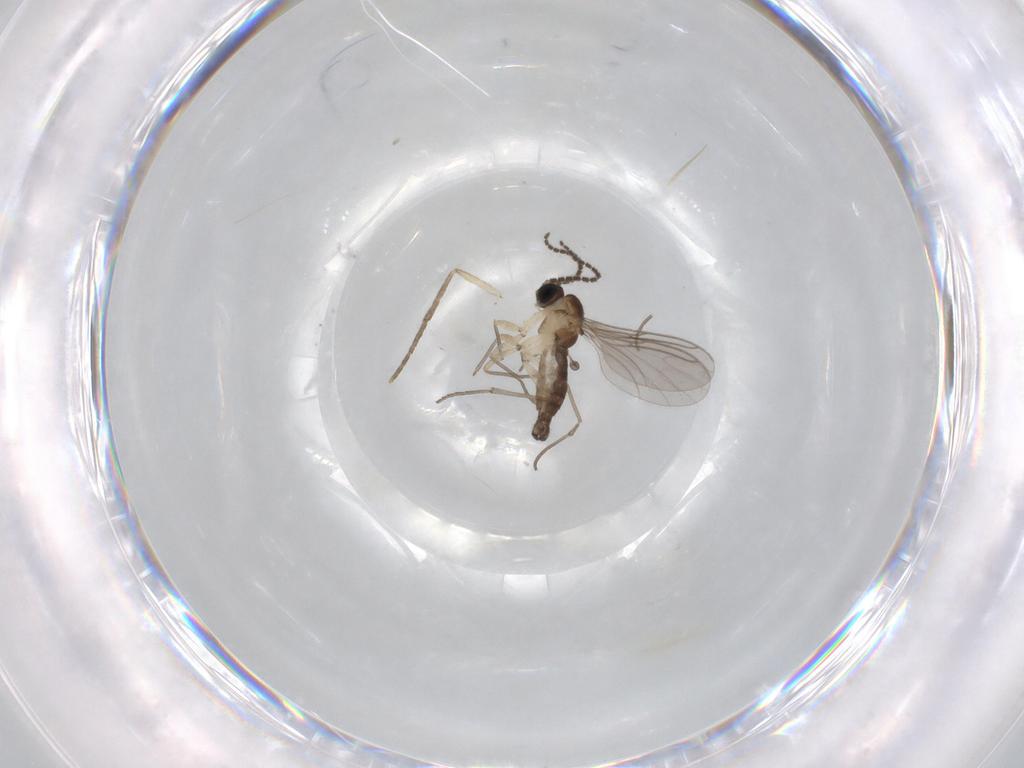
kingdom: Animalia
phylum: Arthropoda
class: Insecta
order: Diptera
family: Sciaridae
